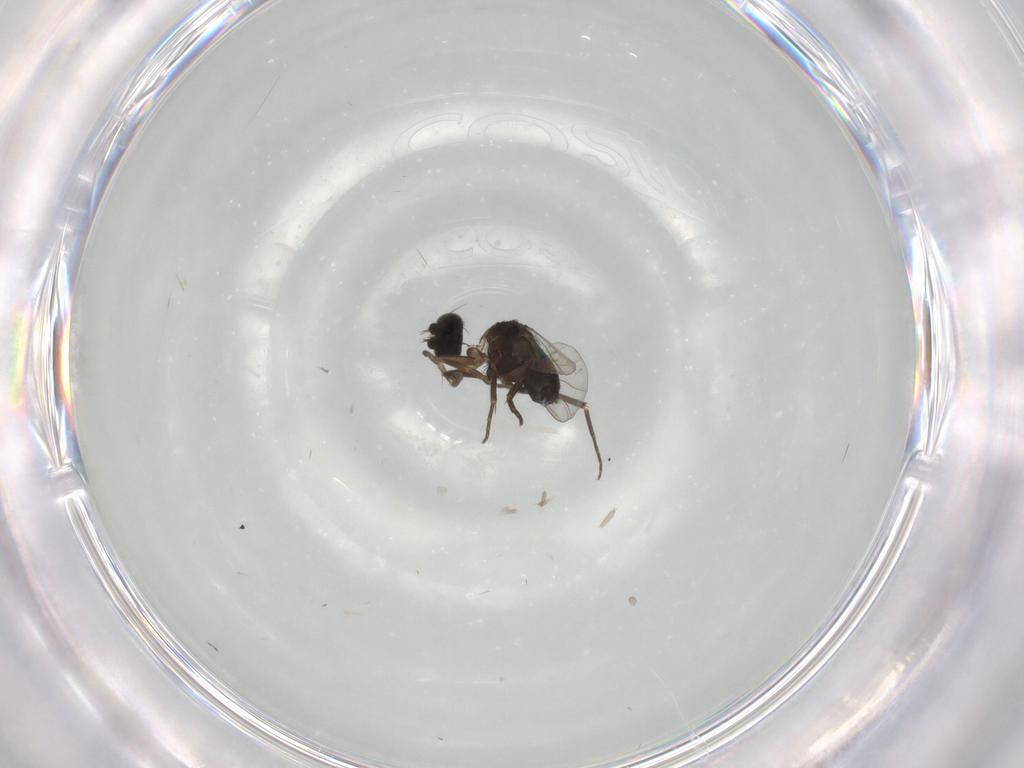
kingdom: Animalia
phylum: Arthropoda
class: Insecta
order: Diptera
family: Phoridae
